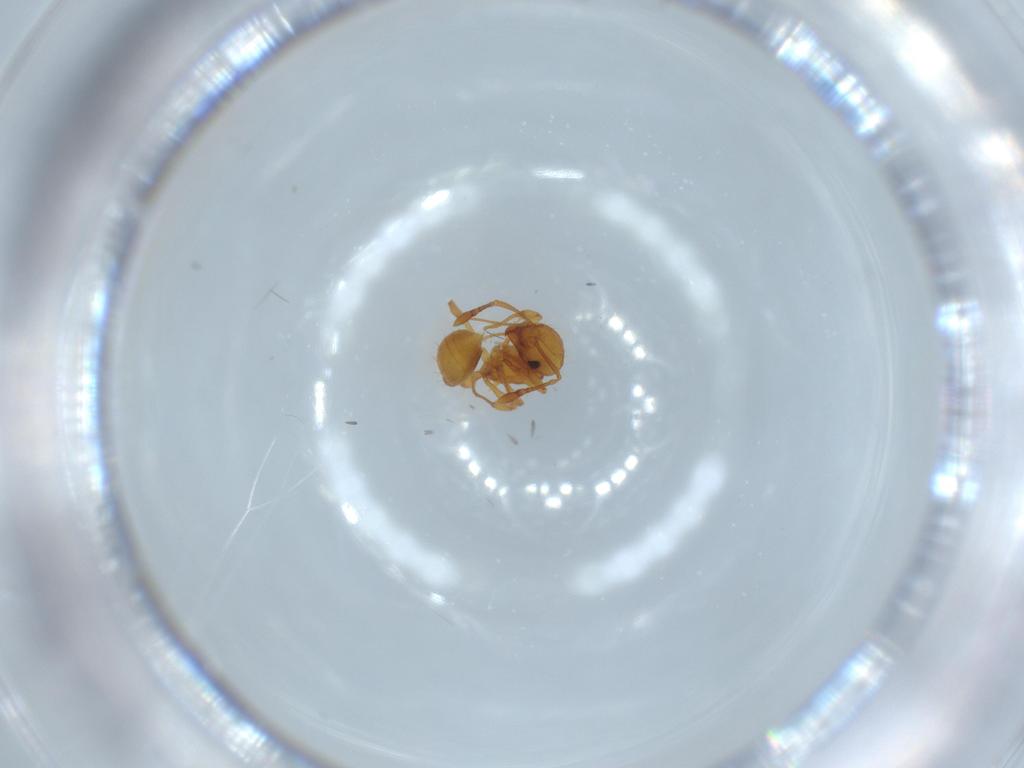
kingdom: Animalia
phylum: Arthropoda
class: Insecta
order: Hymenoptera
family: Formicidae
